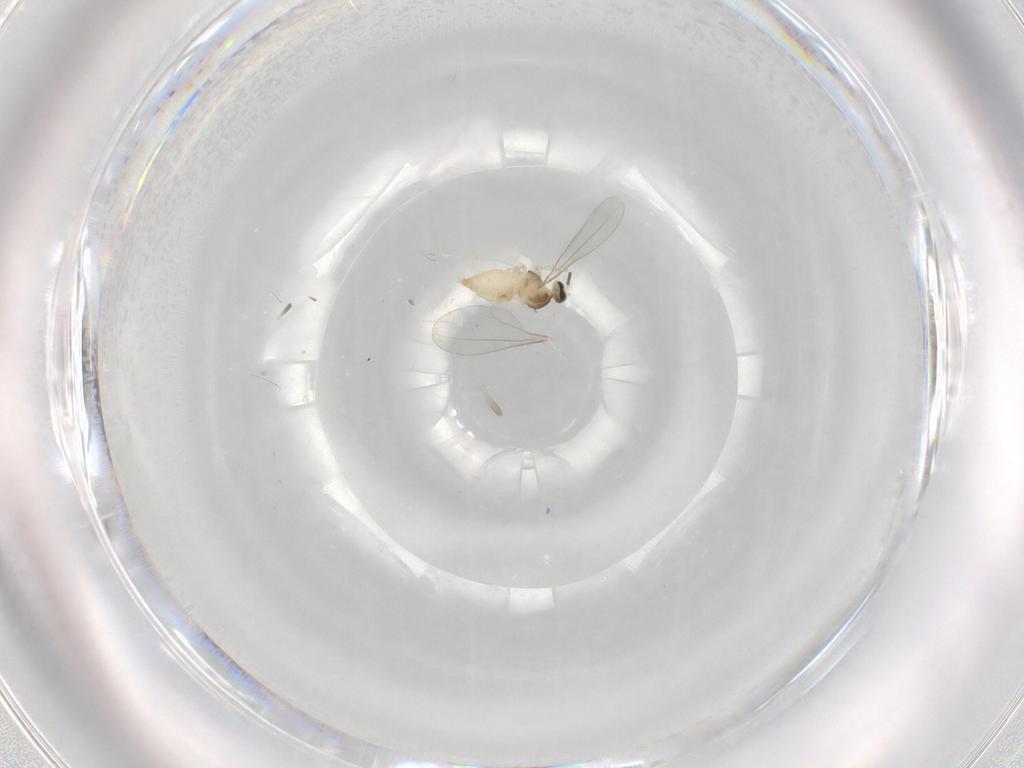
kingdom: Animalia
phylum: Arthropoda
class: Insecta
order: Diptera
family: Cecidomyiidae
